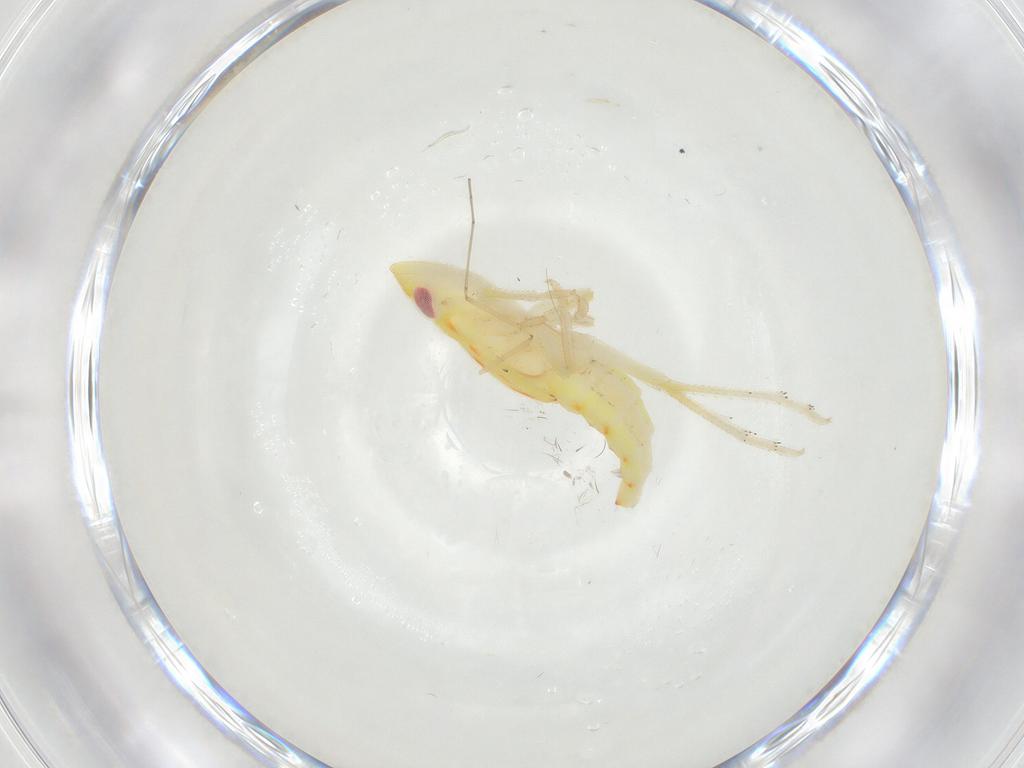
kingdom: Animalia
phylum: Arthropoda
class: Insecta
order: Hemiptera
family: Tropiduchidae
